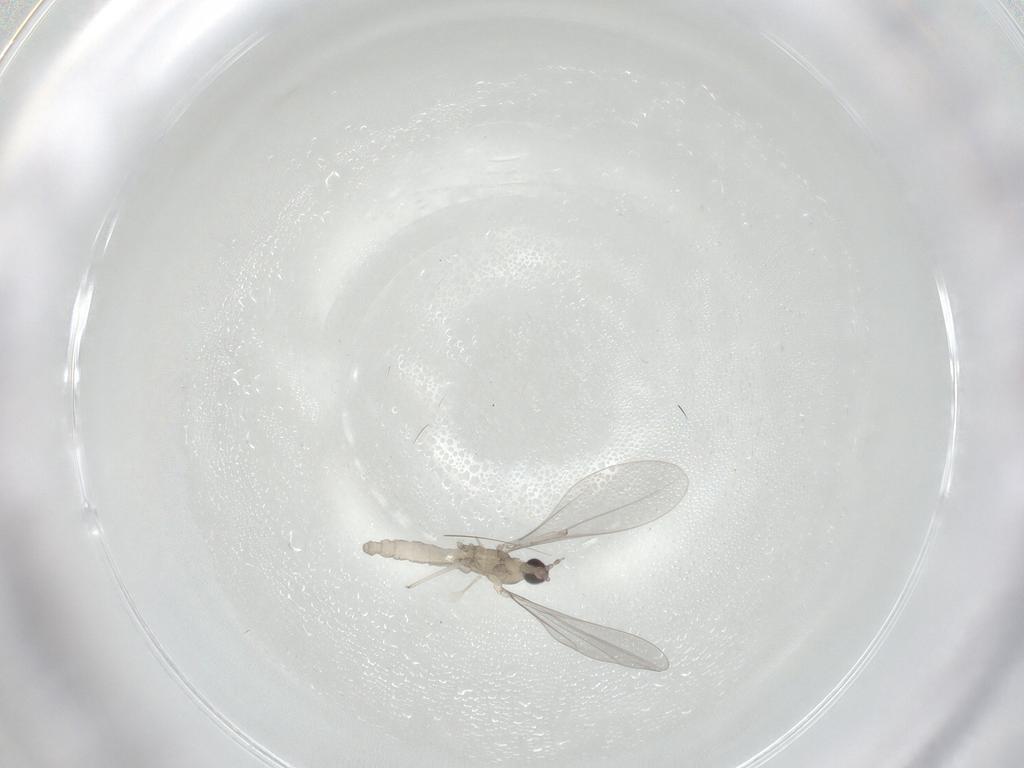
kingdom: Animalia
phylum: Arthropoda
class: Insecta
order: Diptera
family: Cecidomyiidae
